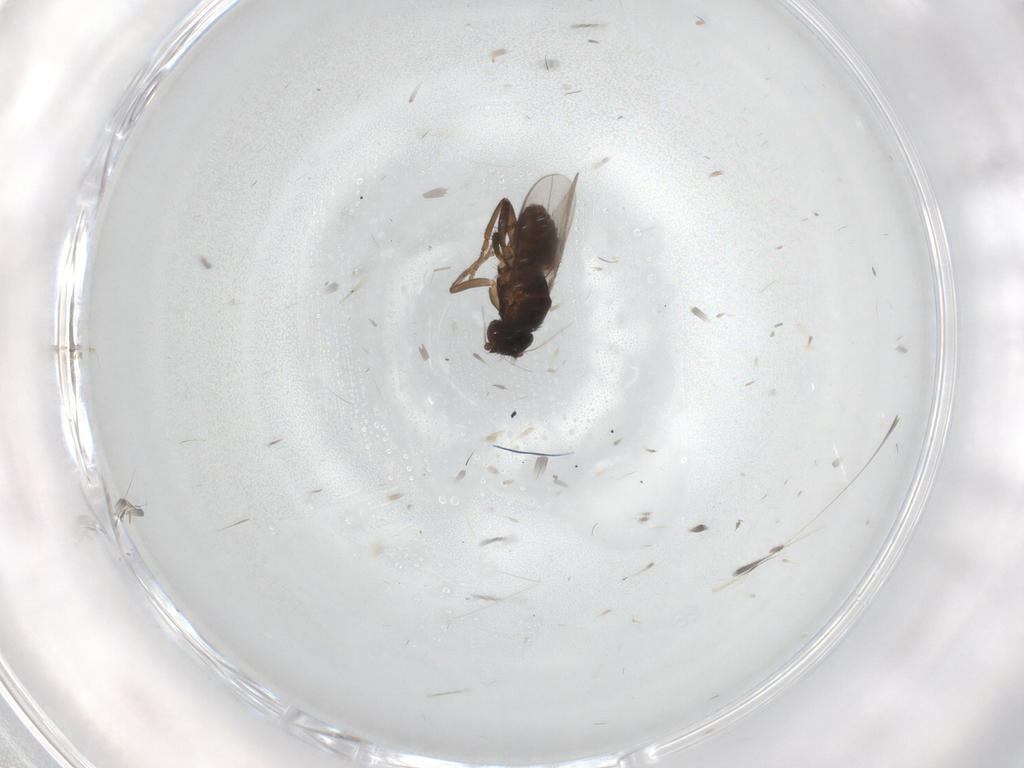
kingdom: Animalia
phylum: Arthropoda
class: Insecta
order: Diptera
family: Sphaeroceridae
